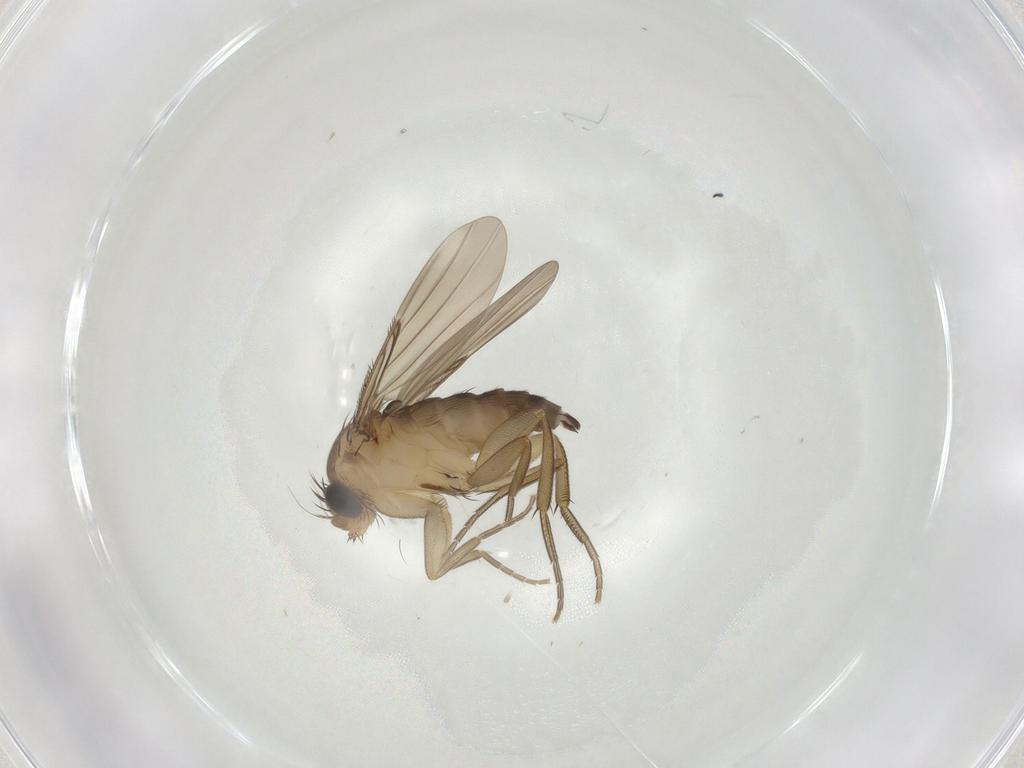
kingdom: Animalia
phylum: Arthropoda
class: Insecta
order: Diptera
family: Phoridae
